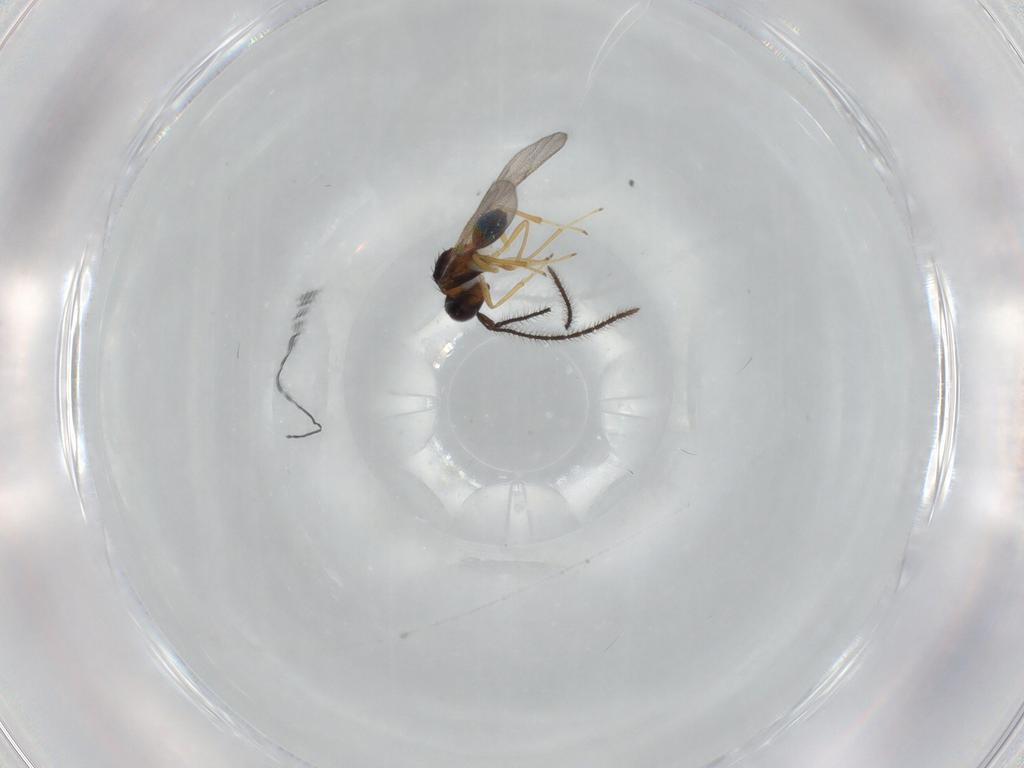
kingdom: Animalia
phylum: Arthropoda
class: Insecta
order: Hymenoptera
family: Diparidae
